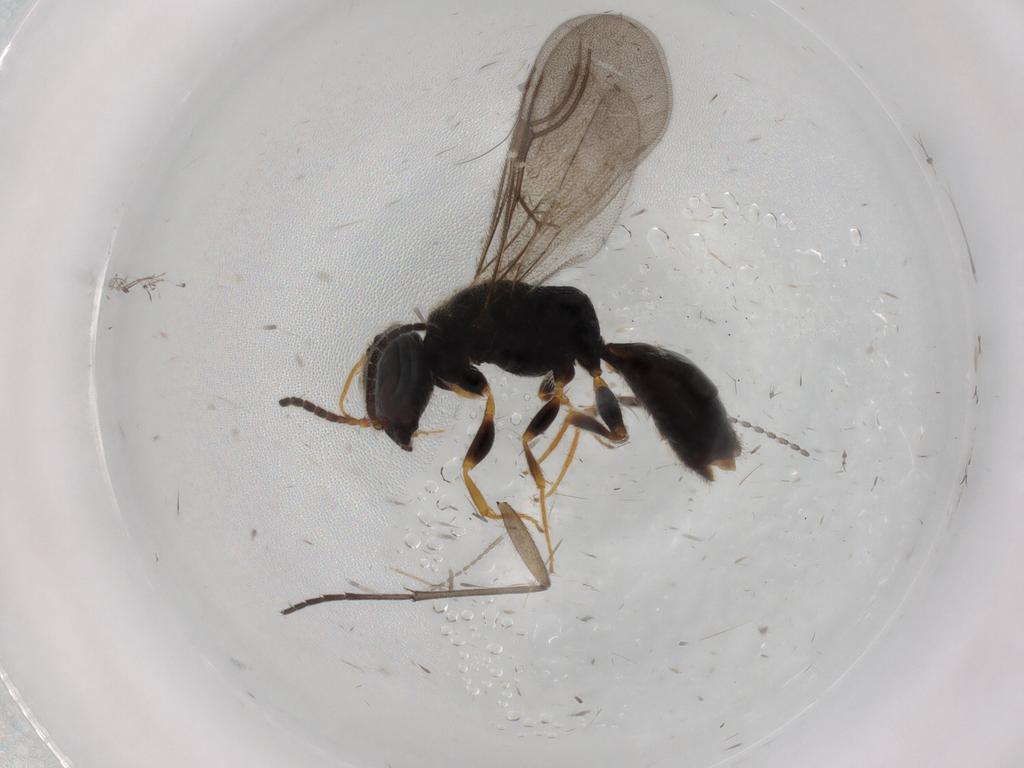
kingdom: Animalia
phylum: Arthropoda
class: Insecta
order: Hymenoptera
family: Bethylidae
